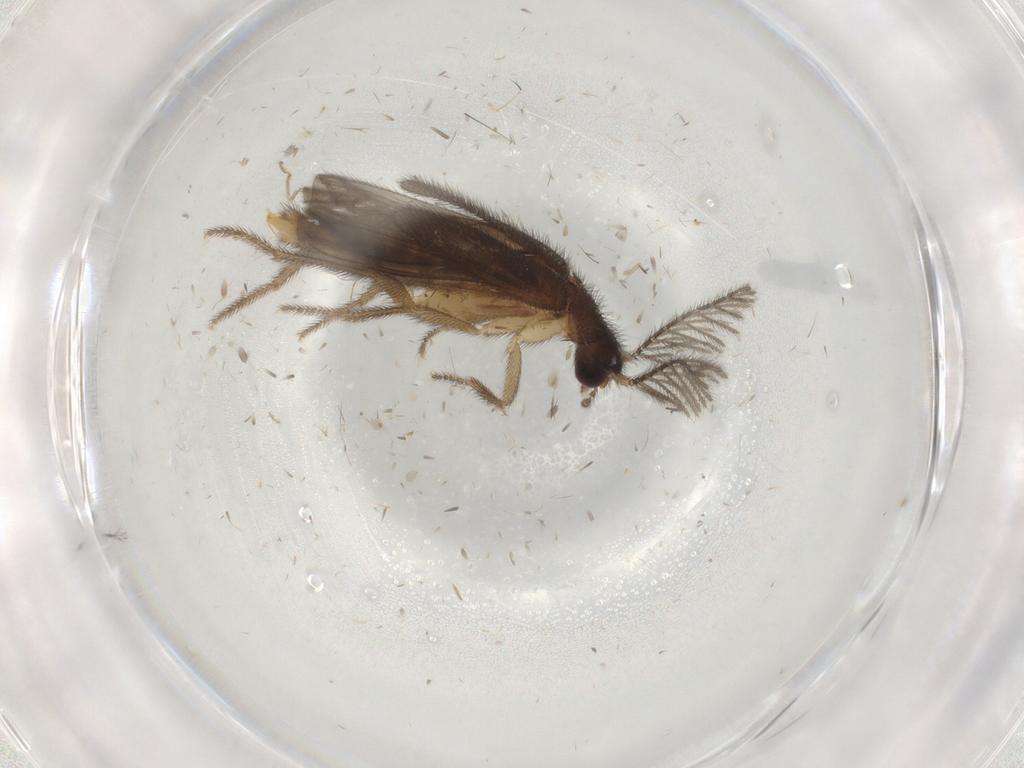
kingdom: Animalia
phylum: Arthropoda
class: Insecta
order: Coleoptera
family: Mordellidae
